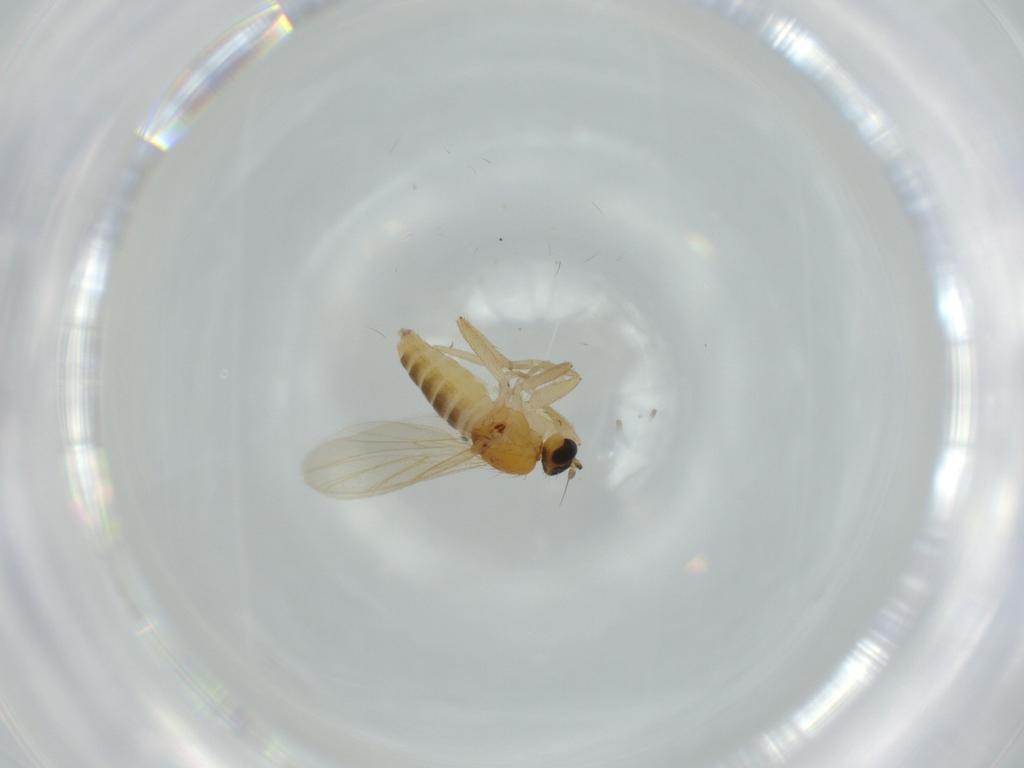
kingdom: Animalia
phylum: Arthropoda
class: Insecta
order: Diptera
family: Hybotidae
